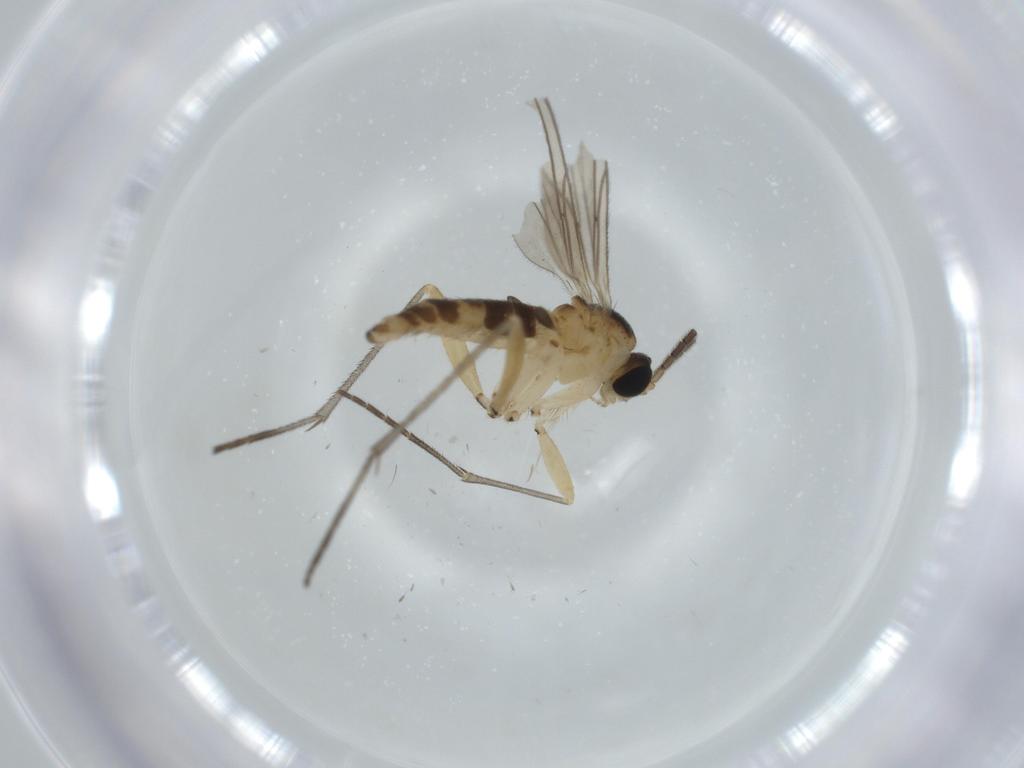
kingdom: Animalia
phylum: Arthropoda
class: Insecta
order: Diptera
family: Sciaridae
